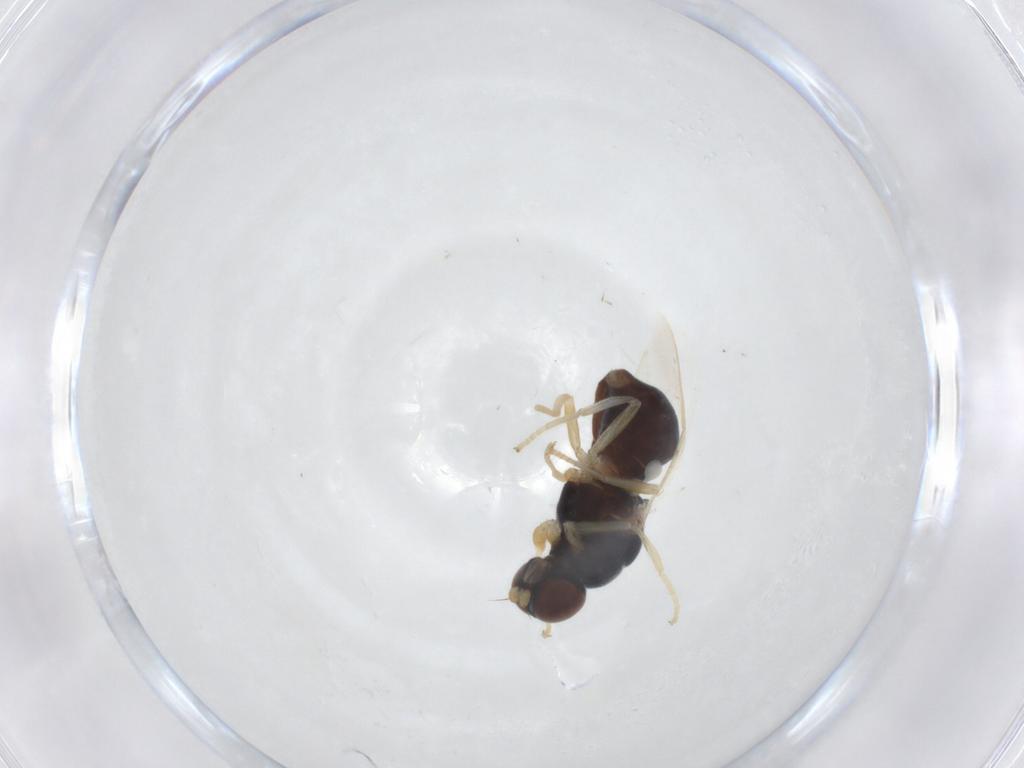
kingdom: Animalia
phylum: Arthropoda
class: Insecta
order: Diptera
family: Stratiomyidae
